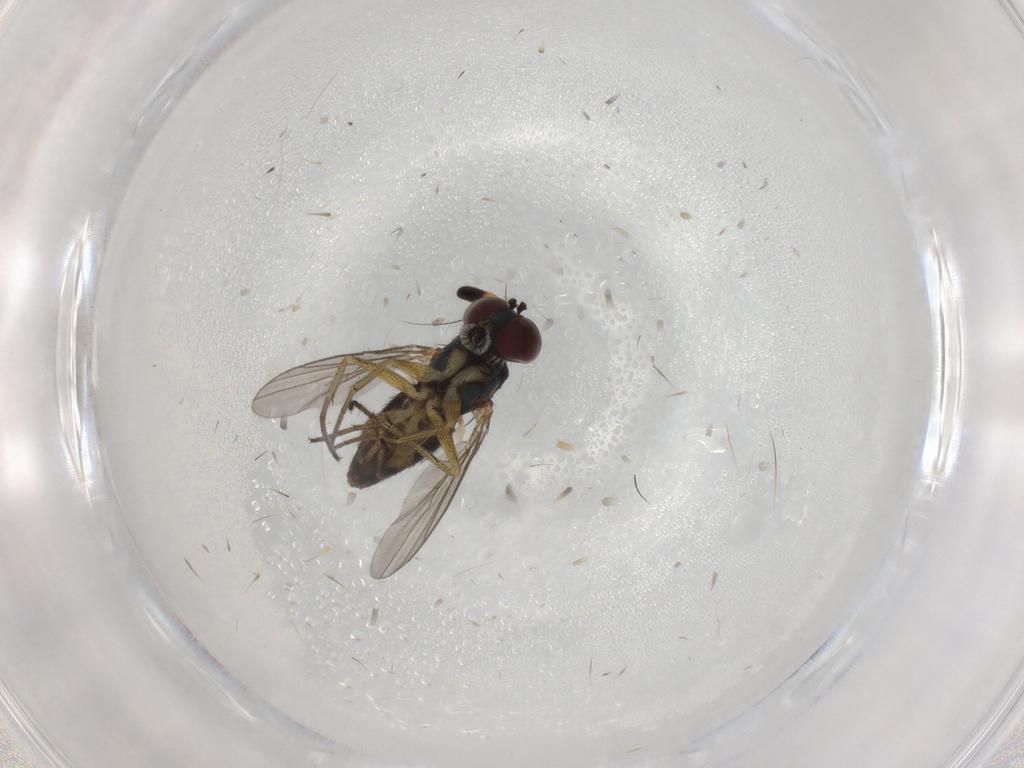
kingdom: Animalia
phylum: Arthropoda
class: Insecta
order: Diptera
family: Dolichopodidae
